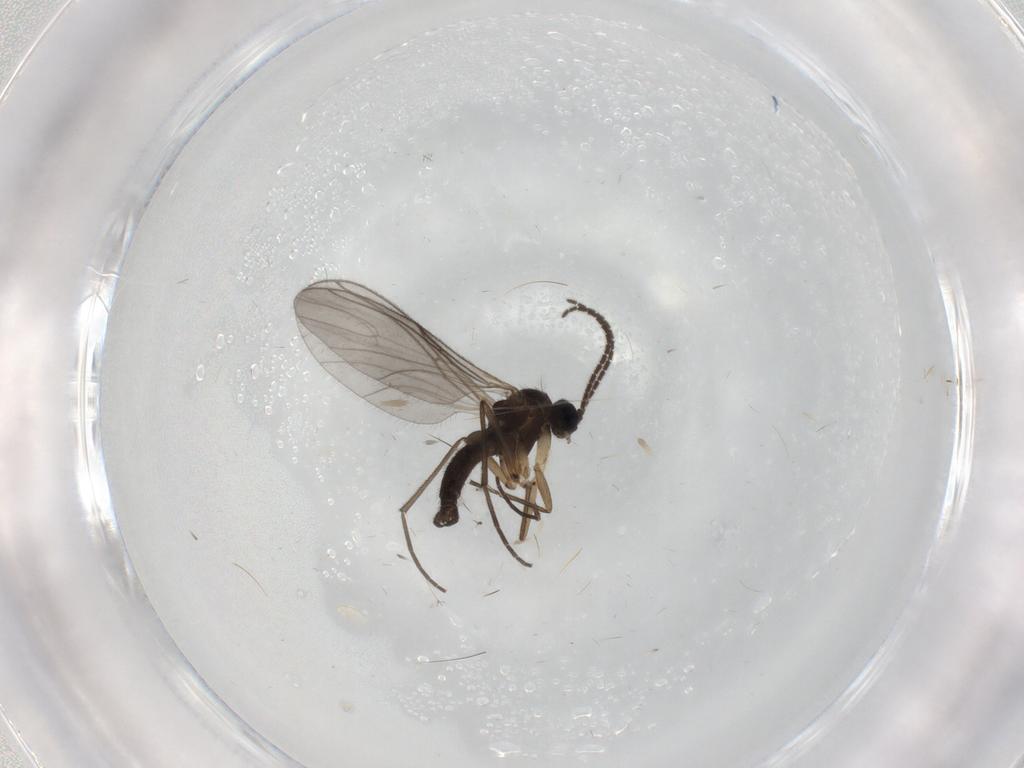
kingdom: Animalia
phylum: Arthropoda
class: Insecta
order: Diptera
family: Sciaridae
